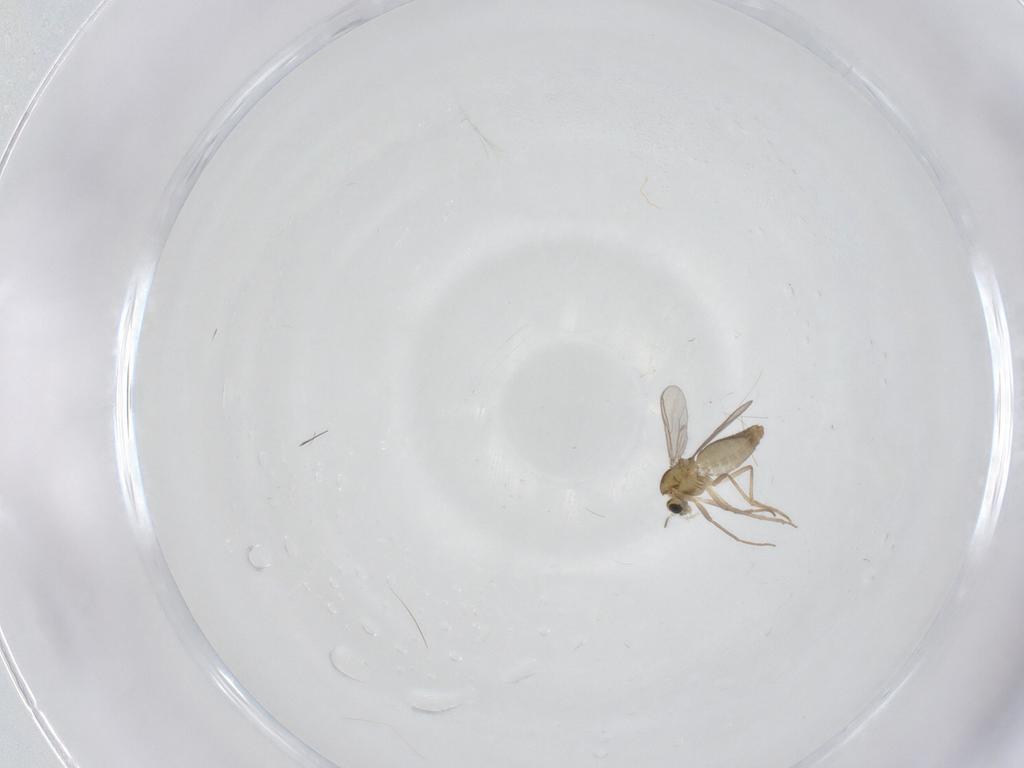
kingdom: Animalia
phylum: Arthropoda
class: Insecta
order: Diptera
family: Chironomidae
